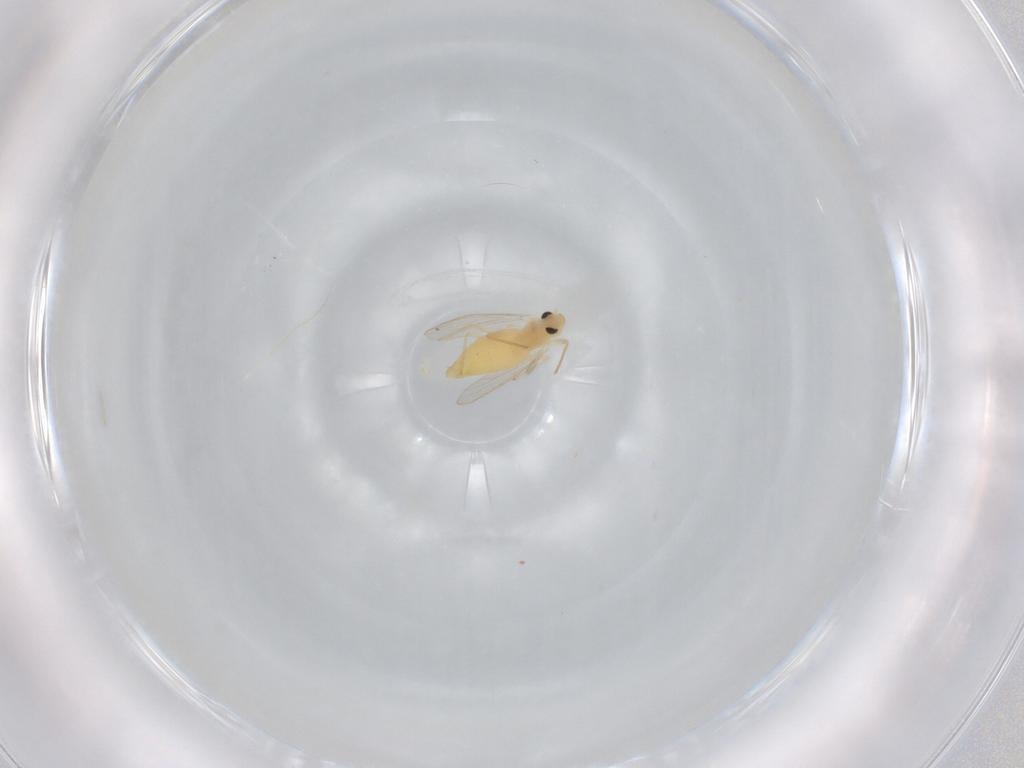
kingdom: Animalia
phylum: Arthropoda
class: Insecta
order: Diptera
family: Chironomidae
